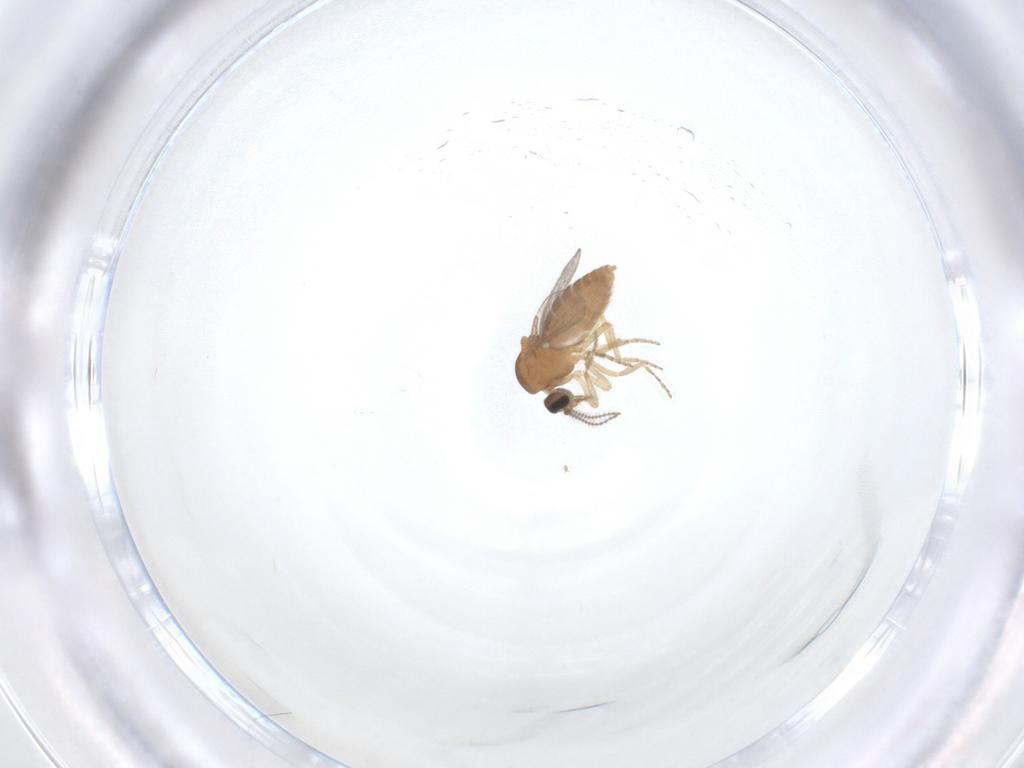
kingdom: Animalia
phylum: Arthropoda
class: Insecta
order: Diptera
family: Ceratopogonidae
